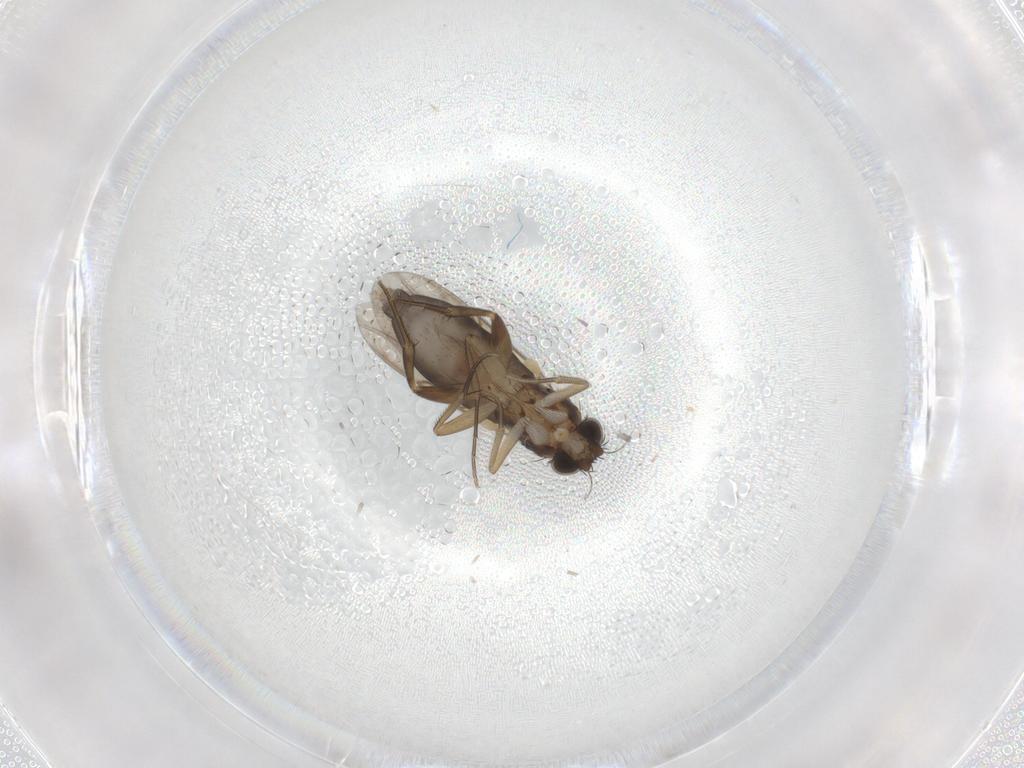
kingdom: Animalia
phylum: Arthropoda
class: Insecta
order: Diptera
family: Cecidomyiidae
